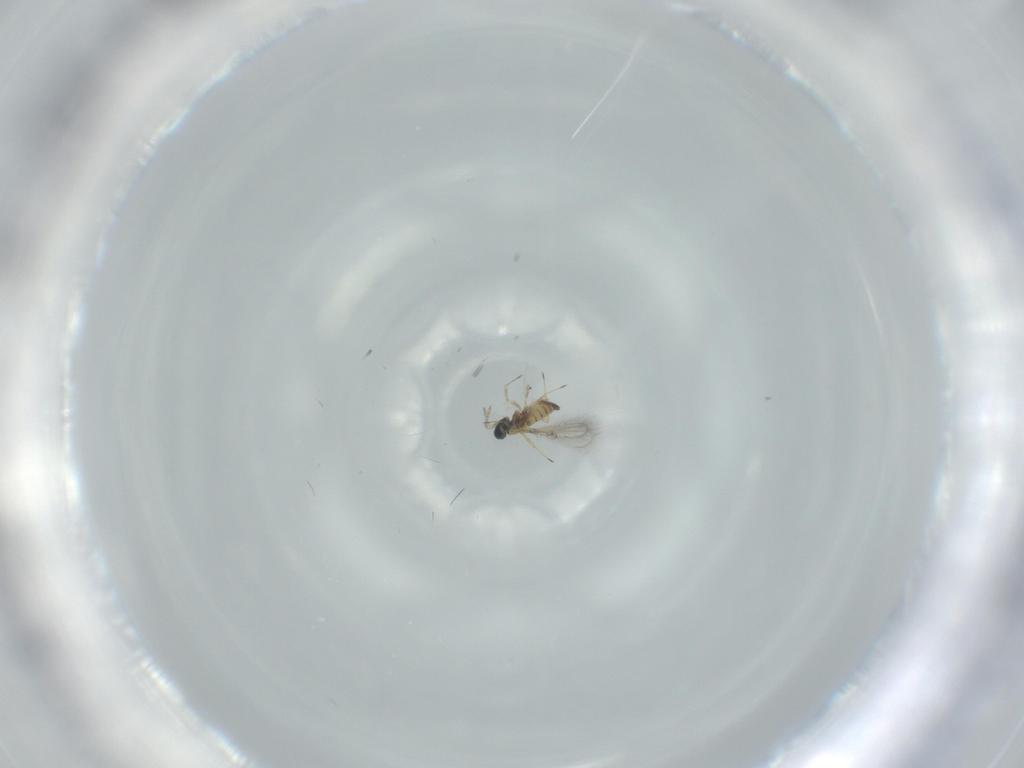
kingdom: Animalia
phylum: Arthropoda
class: Insecta
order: Hymenoptera
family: Trichogrammatidae
